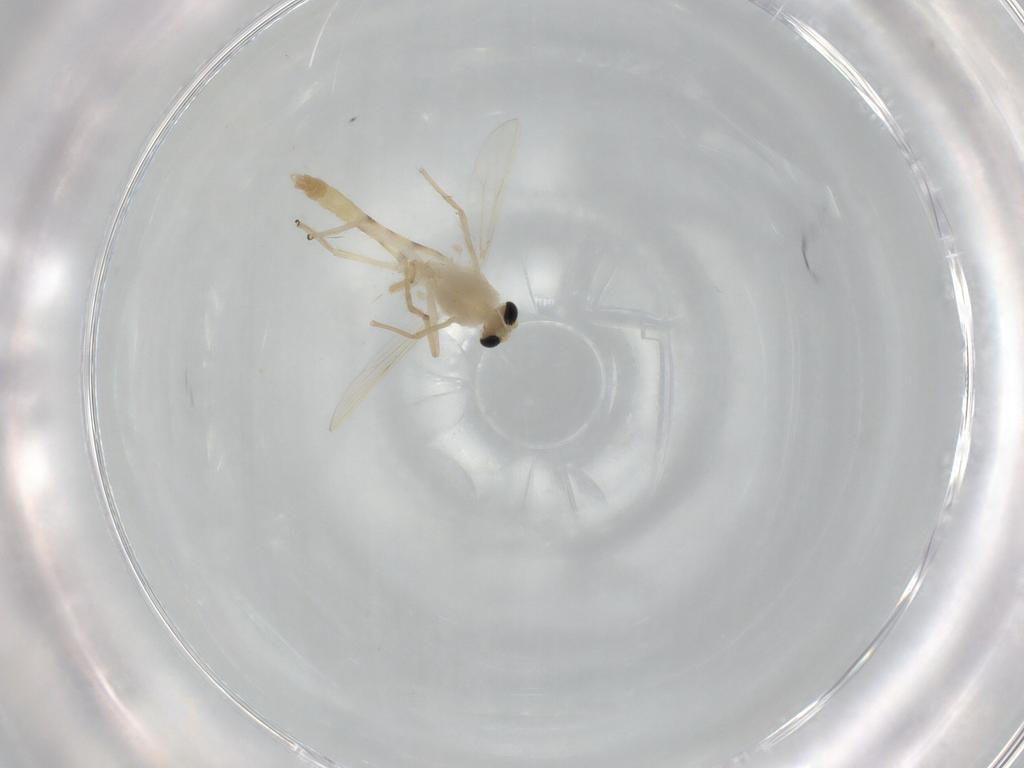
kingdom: Animalia
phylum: Arthropoda
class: Insecta
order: Diptera
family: Chironomidae
